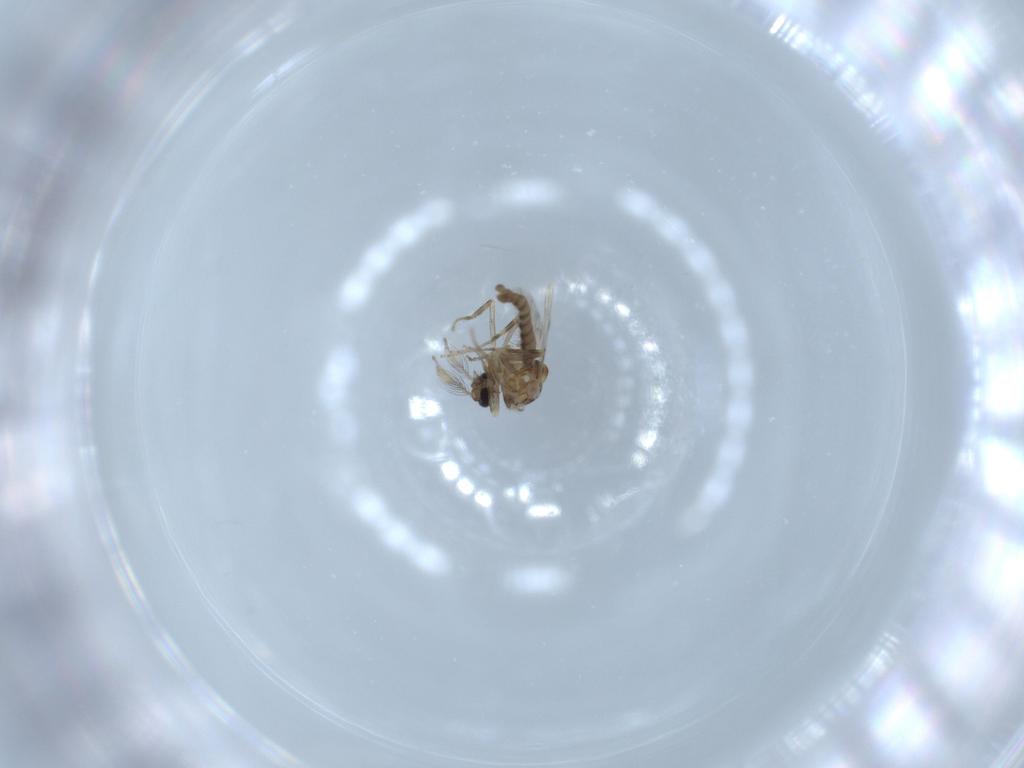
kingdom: Animalia
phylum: Arthropoda
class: Insecta
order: Diptera
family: Ceratopogonidae
